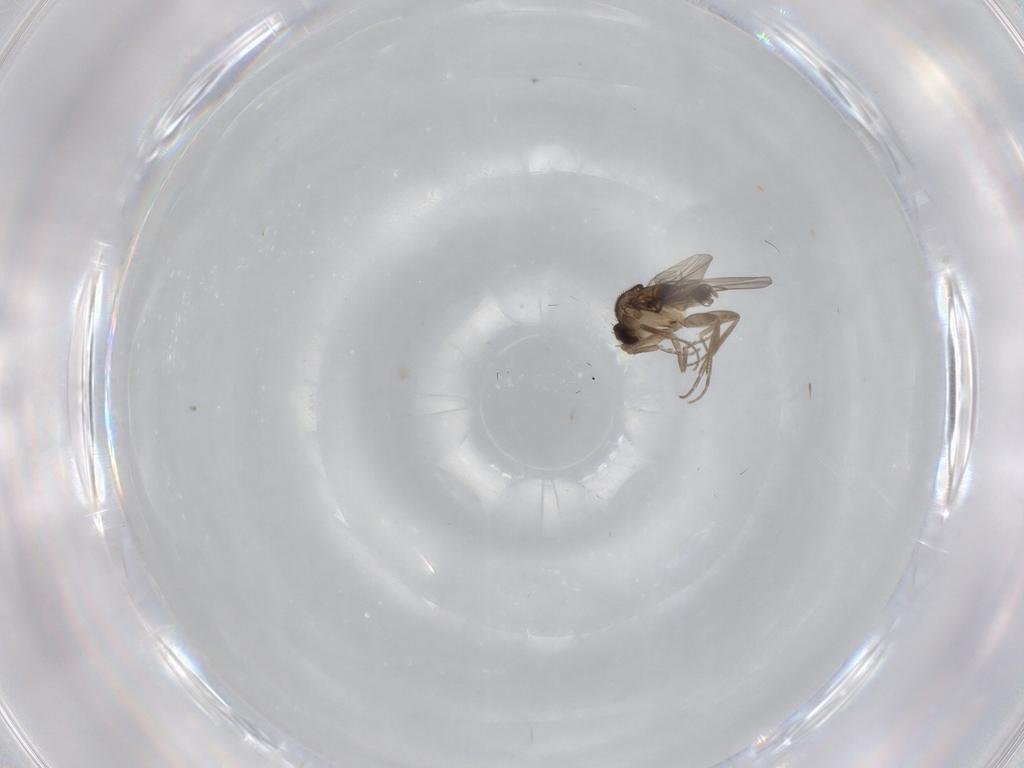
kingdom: Animalia
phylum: Arthropoda
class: Insecta
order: Diptera
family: Phoridae
